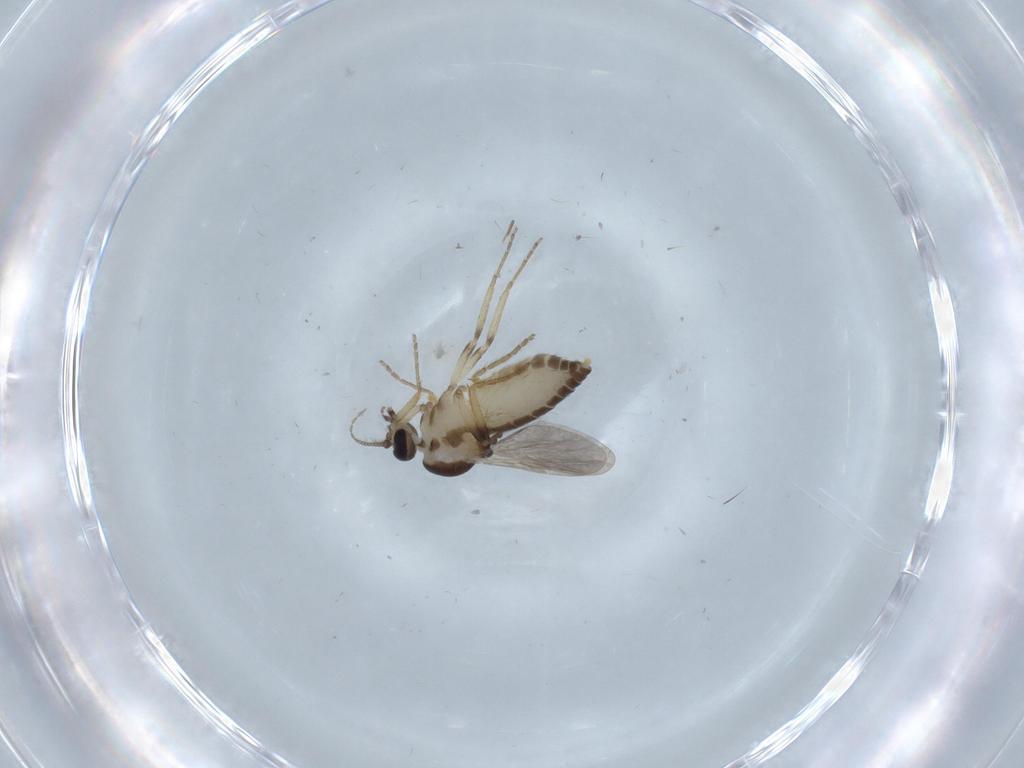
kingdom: Animalia
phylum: Arthropoda
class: Insecta
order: Diptera
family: Ceratopogonidae
